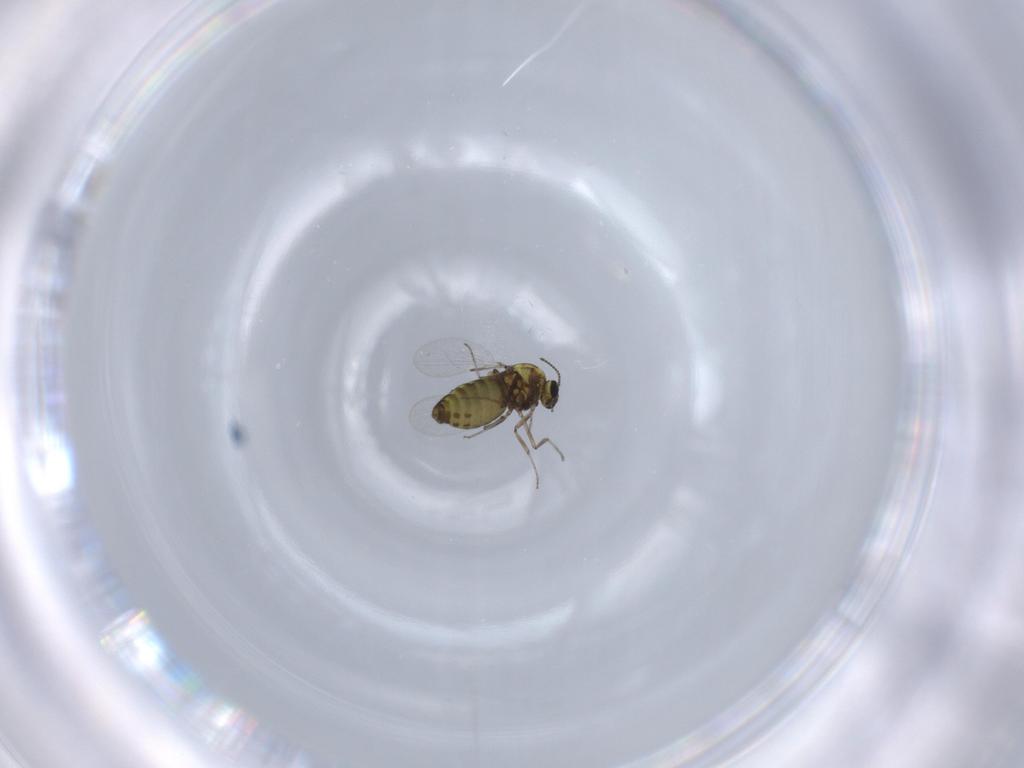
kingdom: Animalia
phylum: Arthropoda
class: Insecta
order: Diptera
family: Ceratopogonidae
